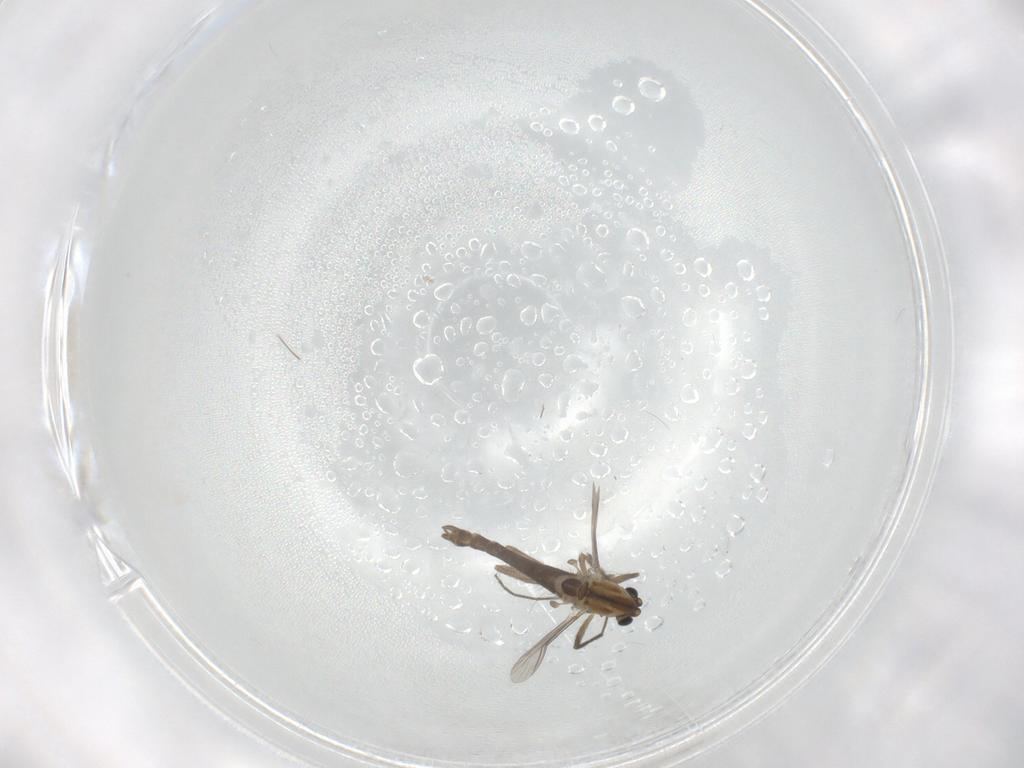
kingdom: Animalia
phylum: Arthropoda
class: Insecta
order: Diptera
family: Chironomidae
